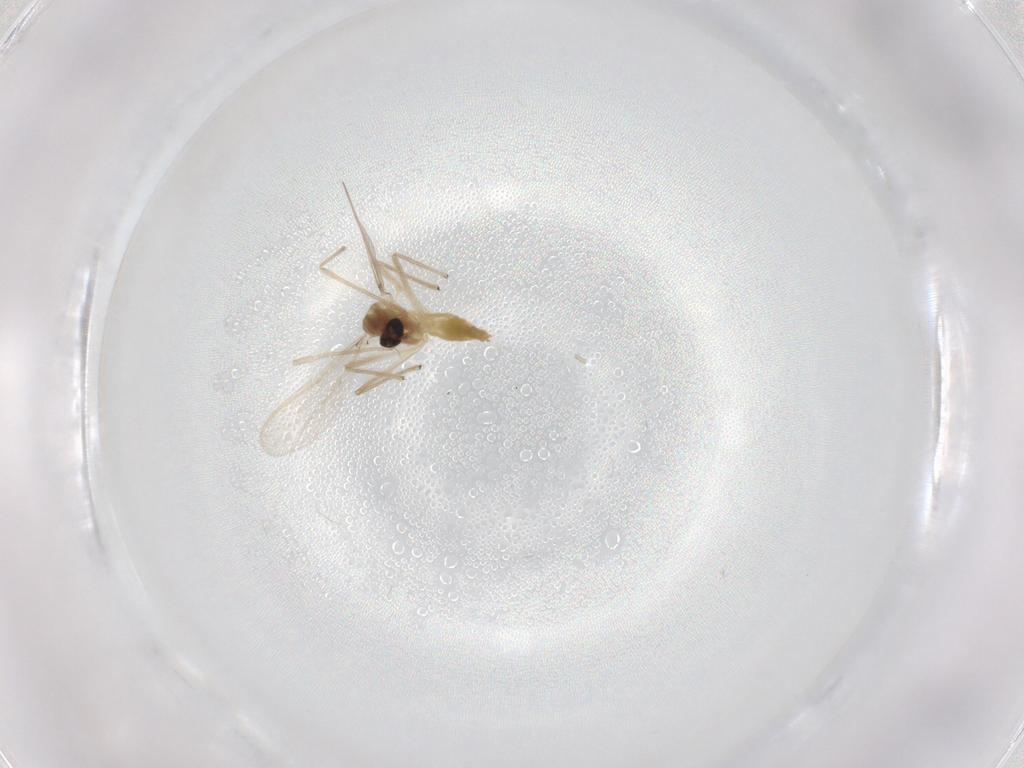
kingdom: Animalia
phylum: Arthropoda
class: Insecta
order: Diptera
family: Chironomidae
